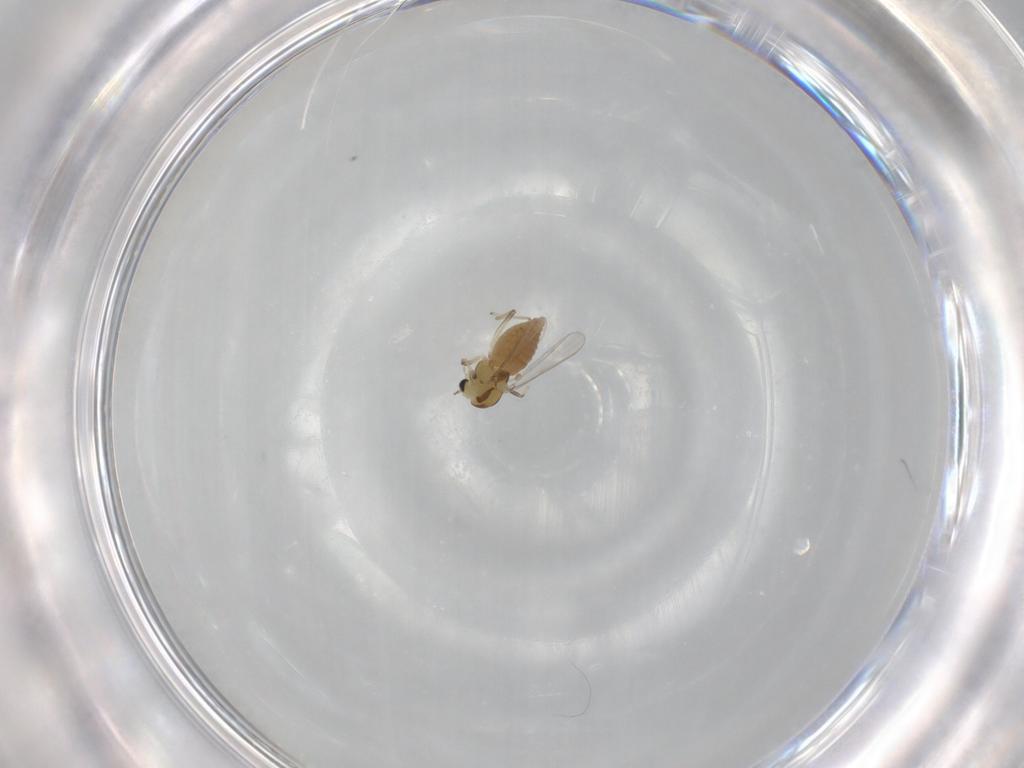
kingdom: Animalia
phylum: Arthropoda
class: Insecta
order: Diptera
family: Chironomidae
